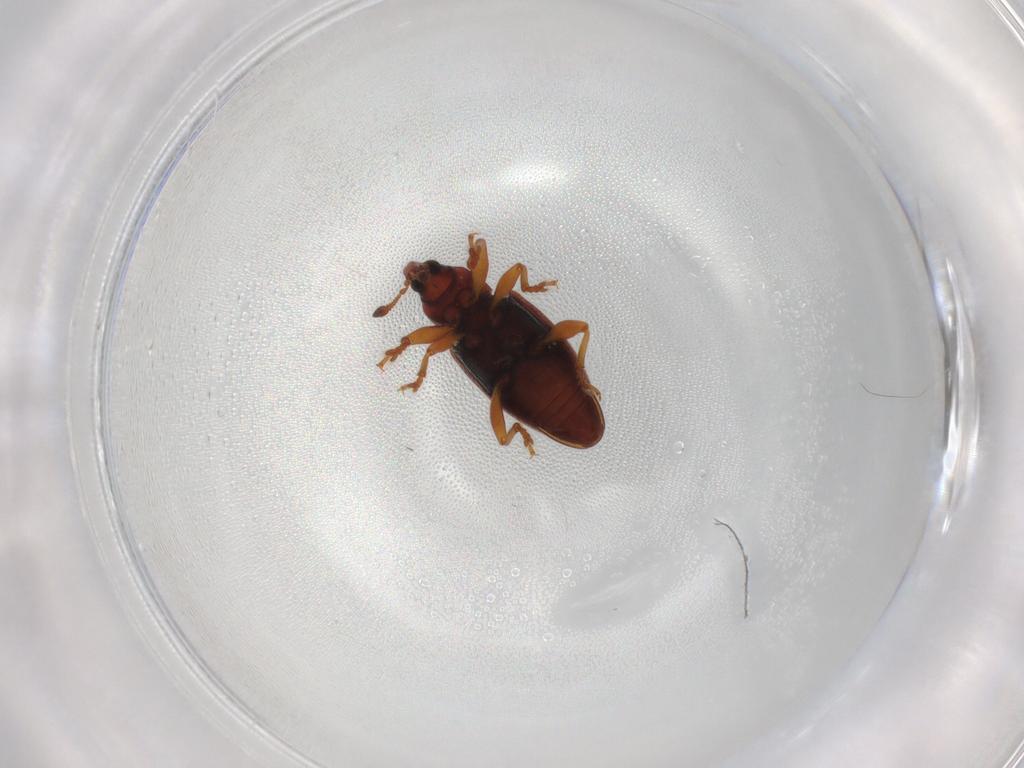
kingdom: Animalia
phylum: Arthropoda
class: Insecta
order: Coleoptera
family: Curculionidae
